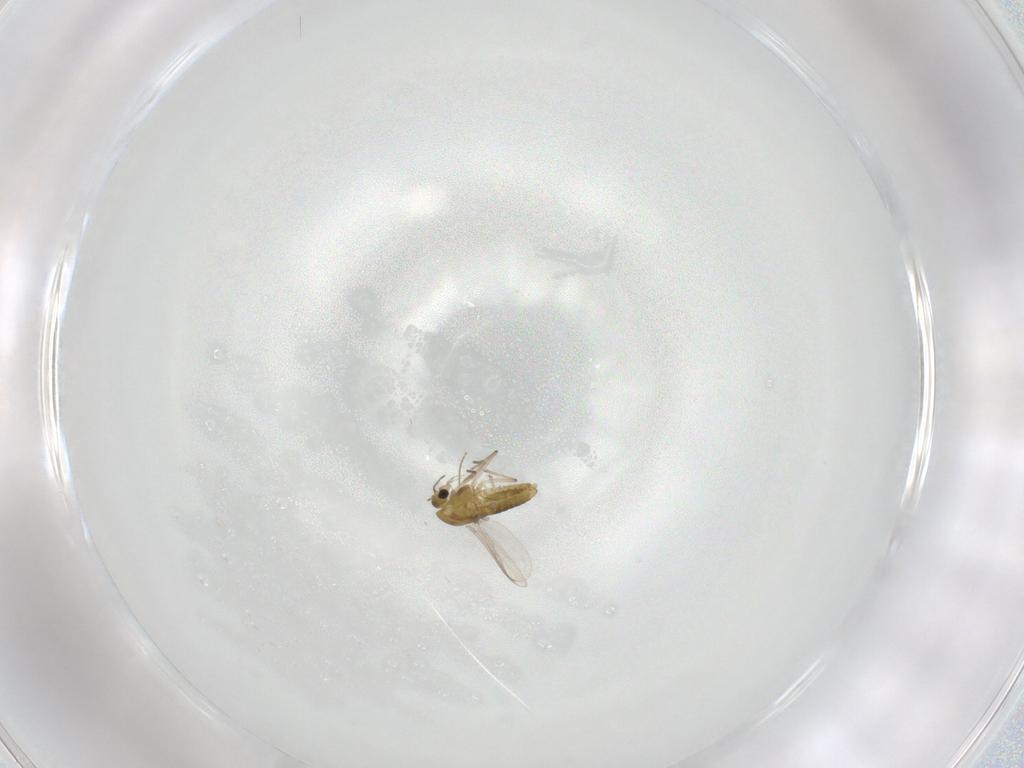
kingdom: Animalia
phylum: Arthropoda
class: Insecta
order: Diptera
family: Chironomidae
